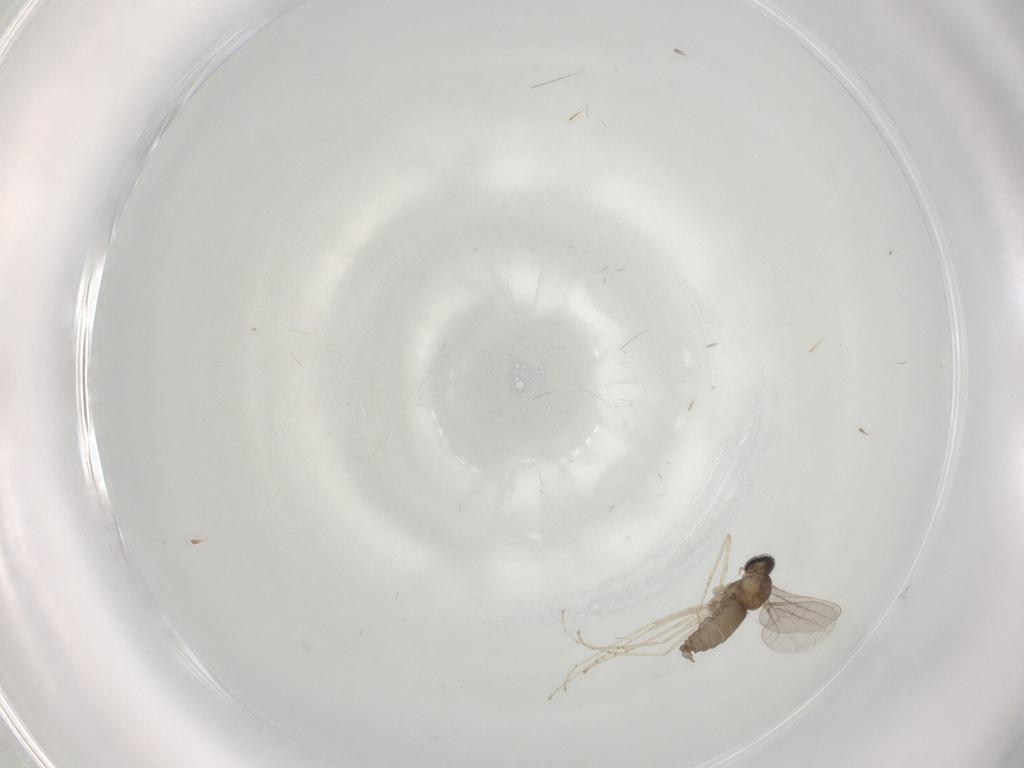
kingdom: Animalia
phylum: Arthropoda
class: Insecta
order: Diptera
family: Cecidomyiidae
